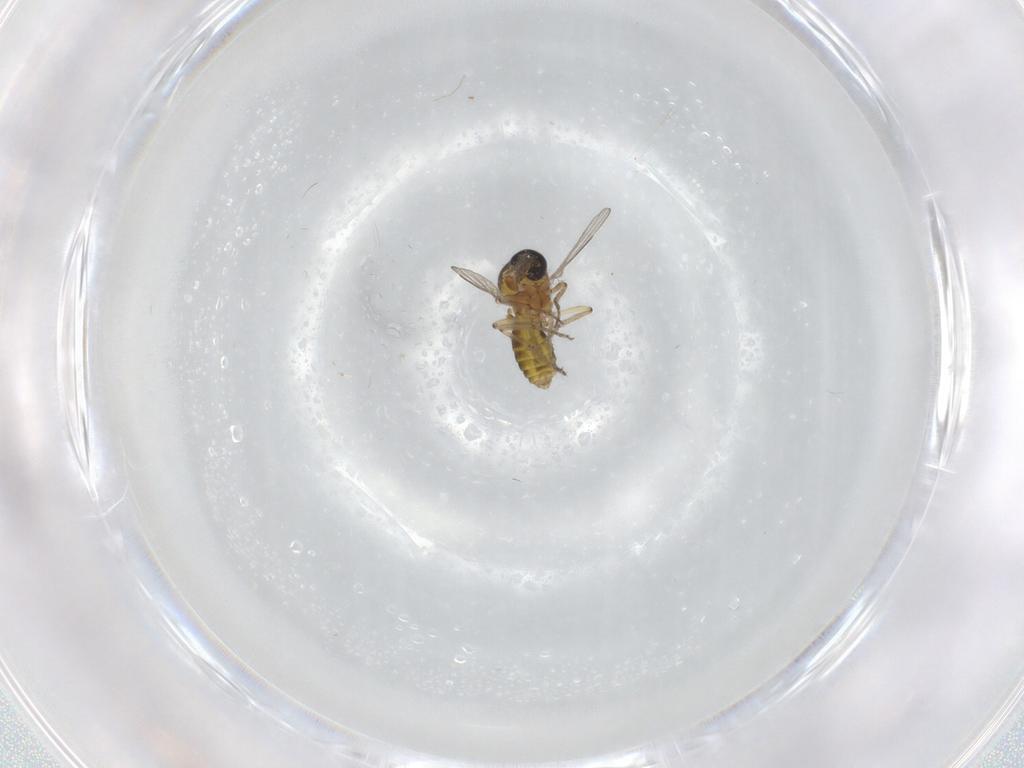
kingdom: Animalia
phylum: Arthropoda
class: Insecta
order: Diptera
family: Ceratopogonidae
